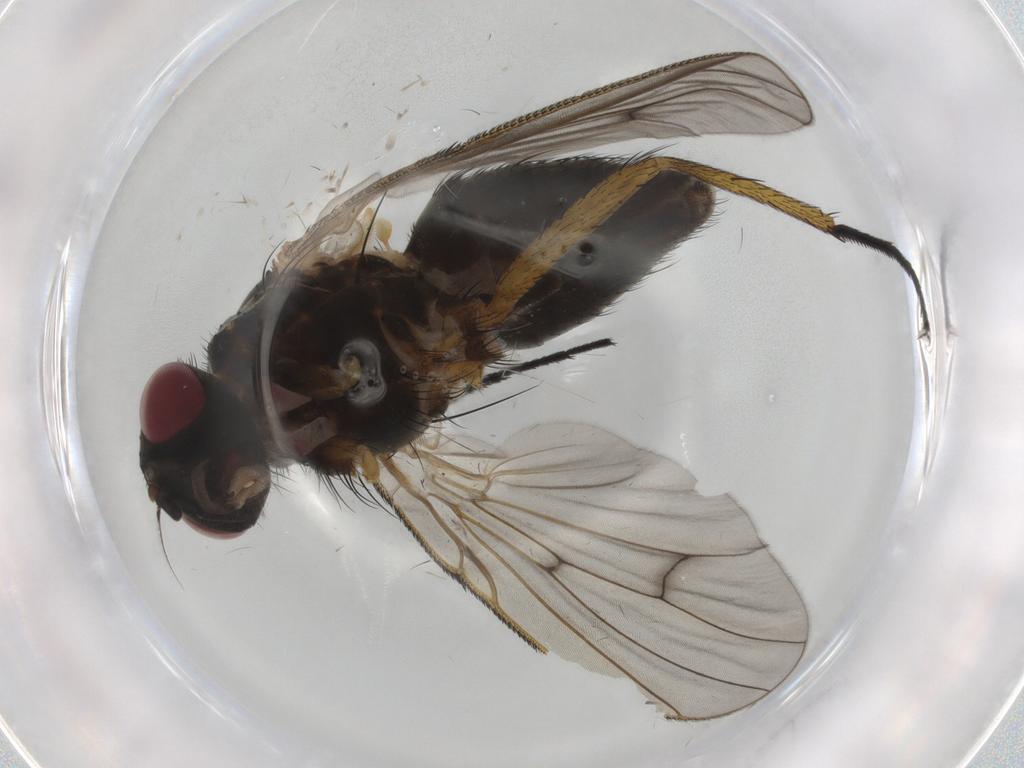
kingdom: Animalia
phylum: Arthropoda
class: Insecta
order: Diptera
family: Muscidae
